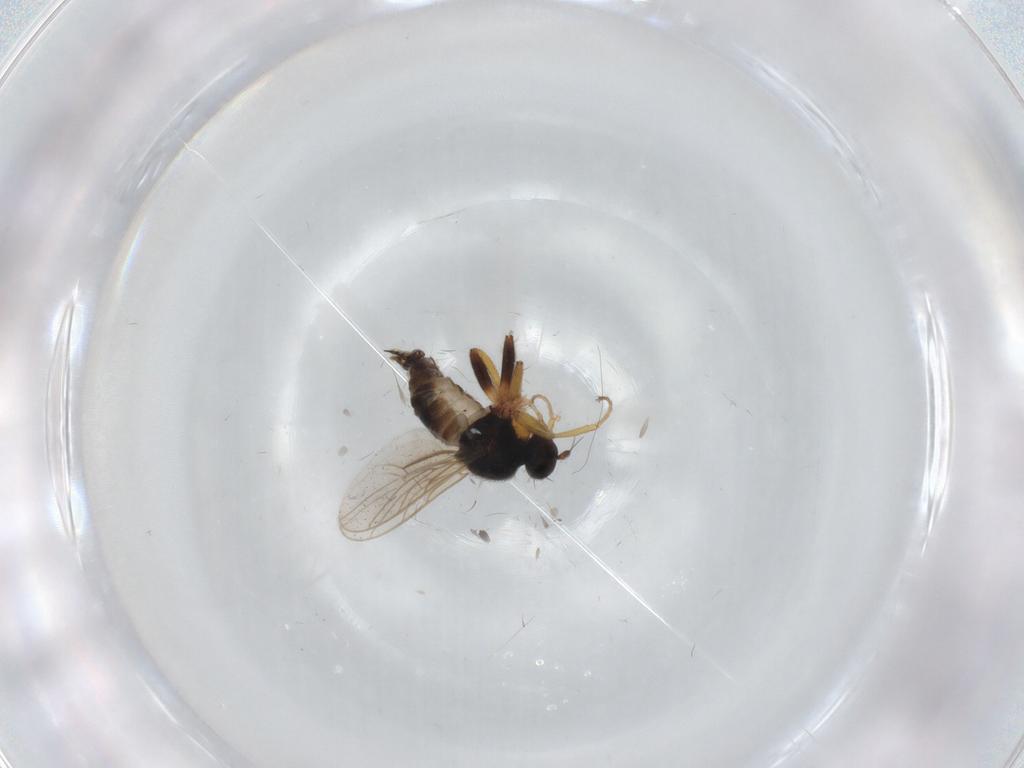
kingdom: Animalia
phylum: Arthropoda
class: Insecta
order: Diptera
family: Hybotidae
